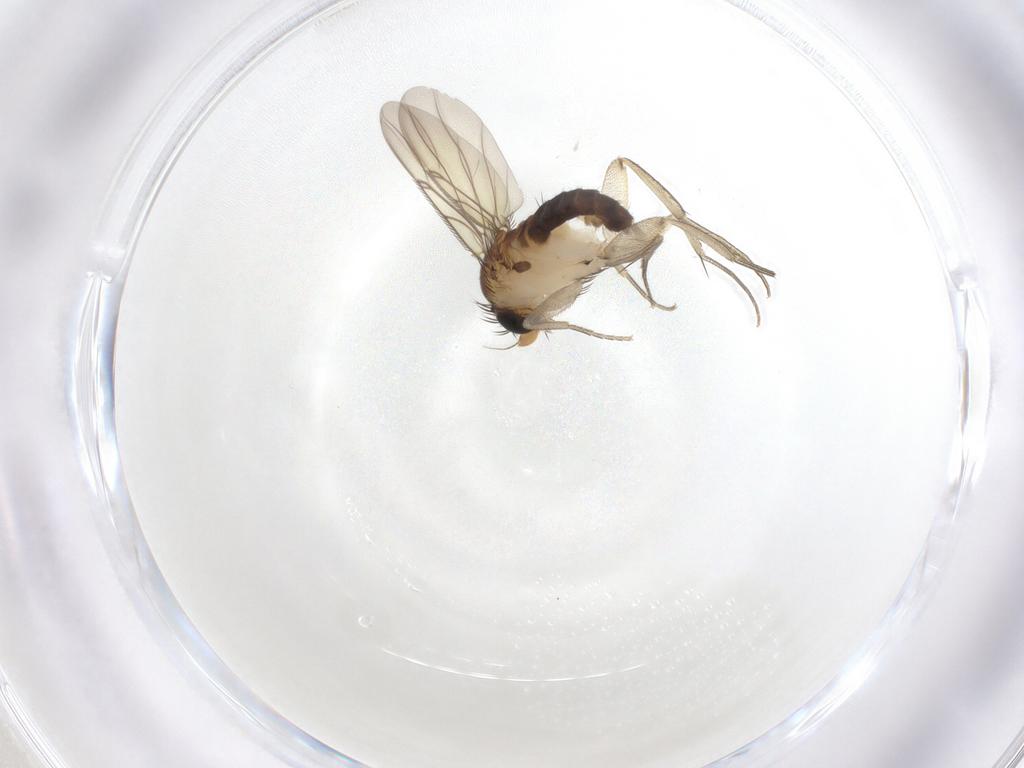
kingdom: Animalia
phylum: Arthropoda
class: Insecta
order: Diptera
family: Phoridae
